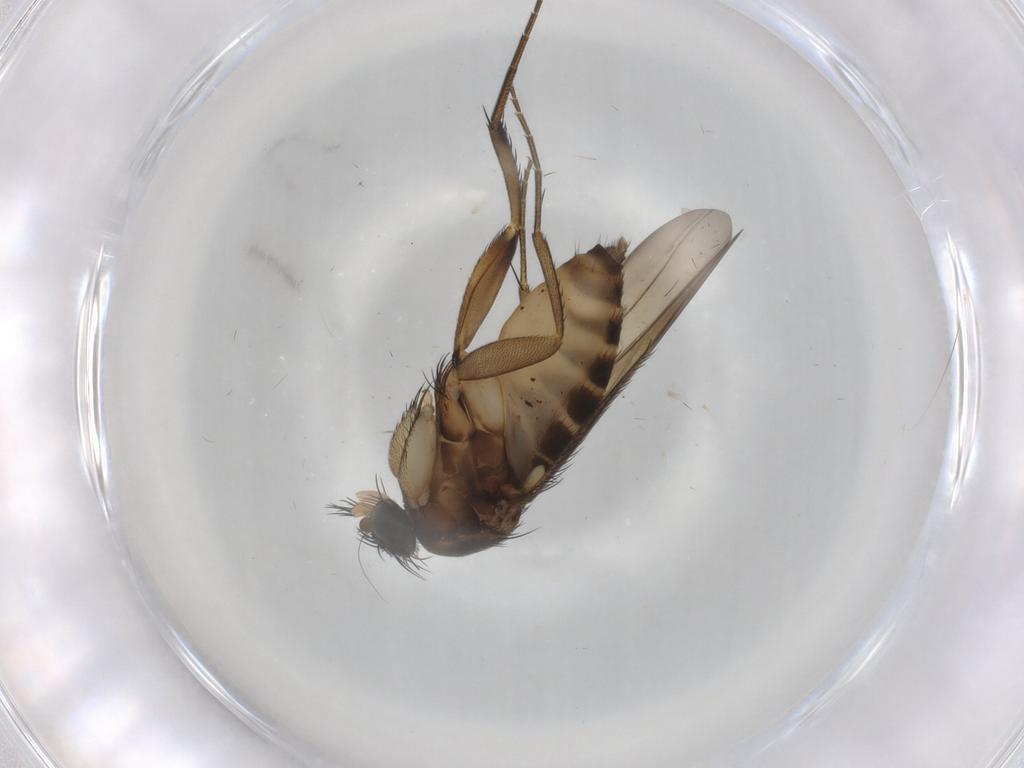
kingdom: Animalia
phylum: Arthropoda
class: Insecta
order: Diptera
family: Phoridae
